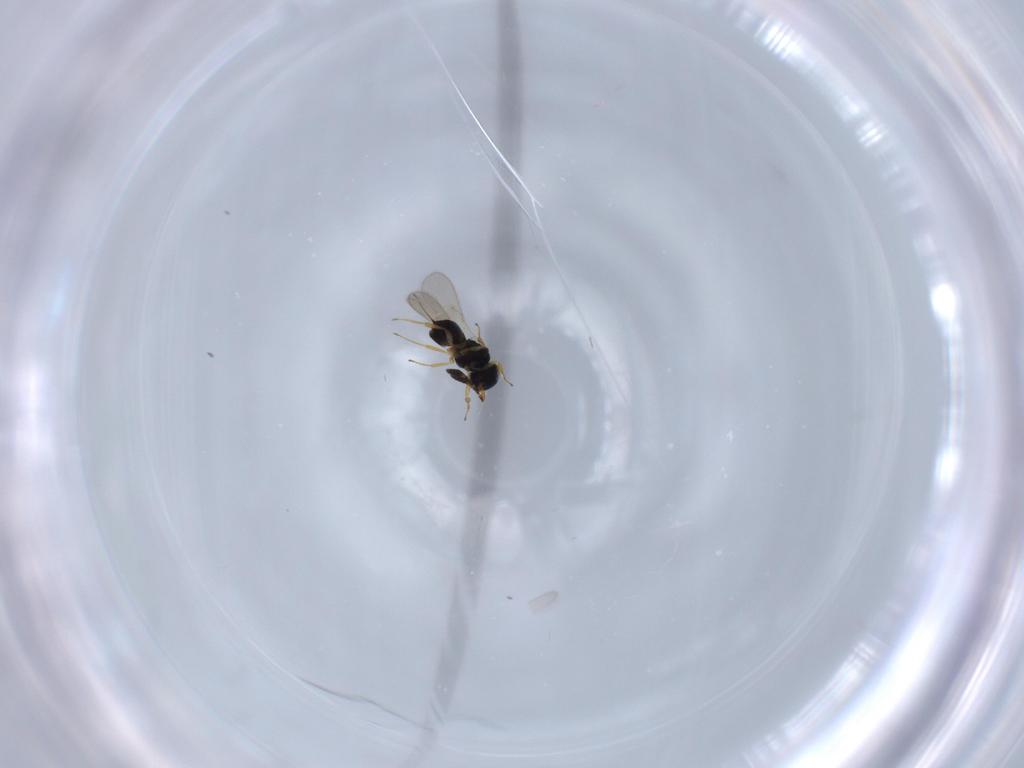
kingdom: Animalia
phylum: Arthropoda
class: Insecta
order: Hymenoptera
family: Scelionidae
